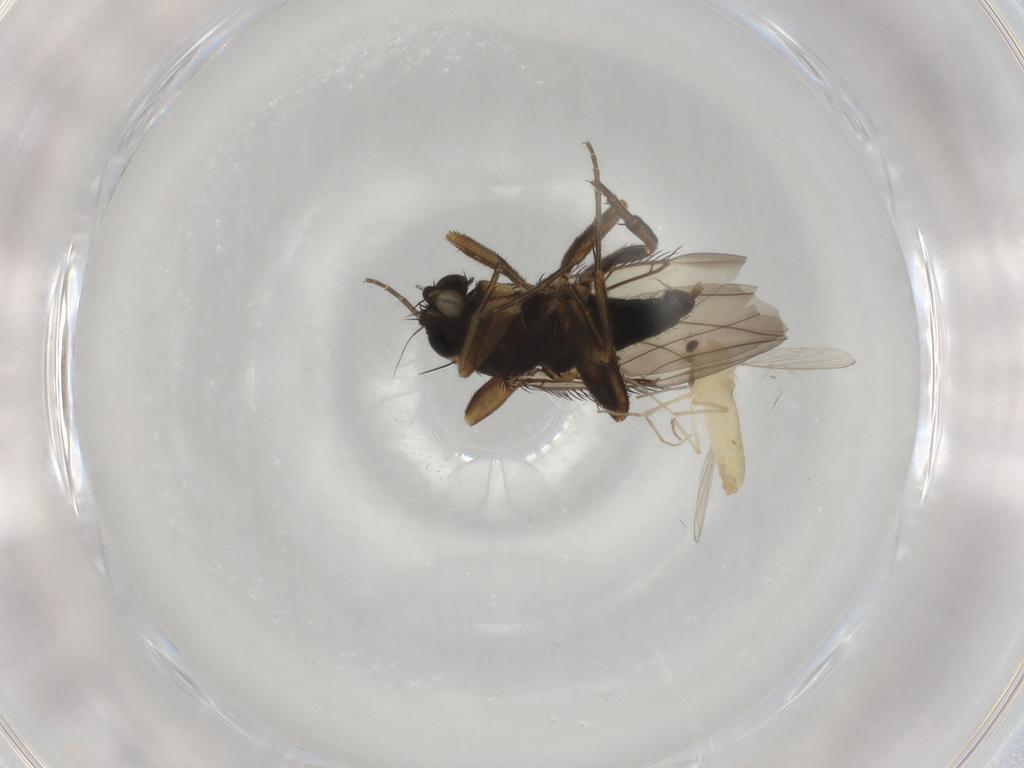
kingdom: Animalia
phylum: Arthropoda
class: Insecta
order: Diptera
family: Phoridae
